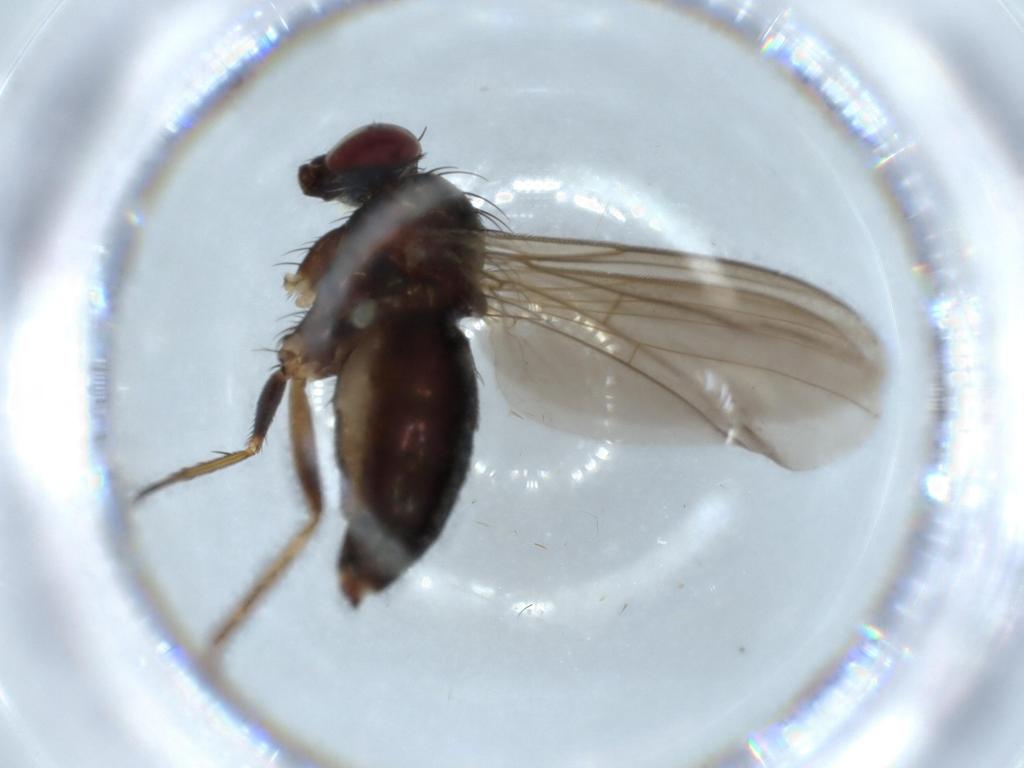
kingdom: Animalia
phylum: Arthropoda
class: Insecta
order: Diptera
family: Dolichopodidae
